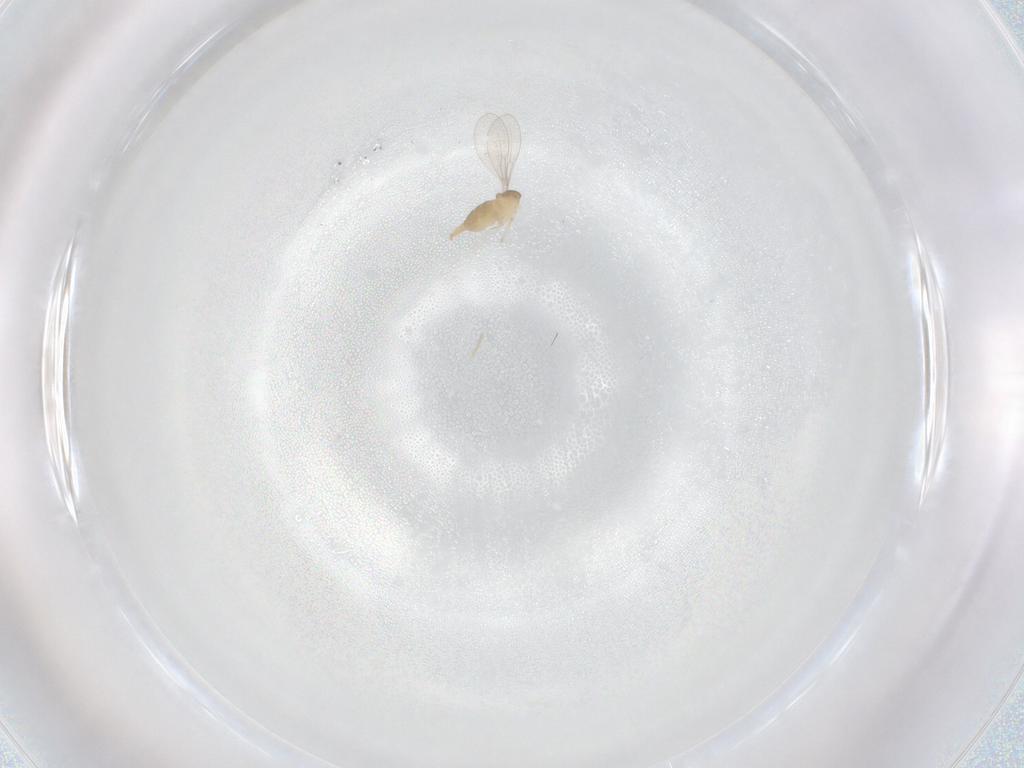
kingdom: Animalia
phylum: Arthropoda
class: Insecta
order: Diptera
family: Cecidomyiidae
